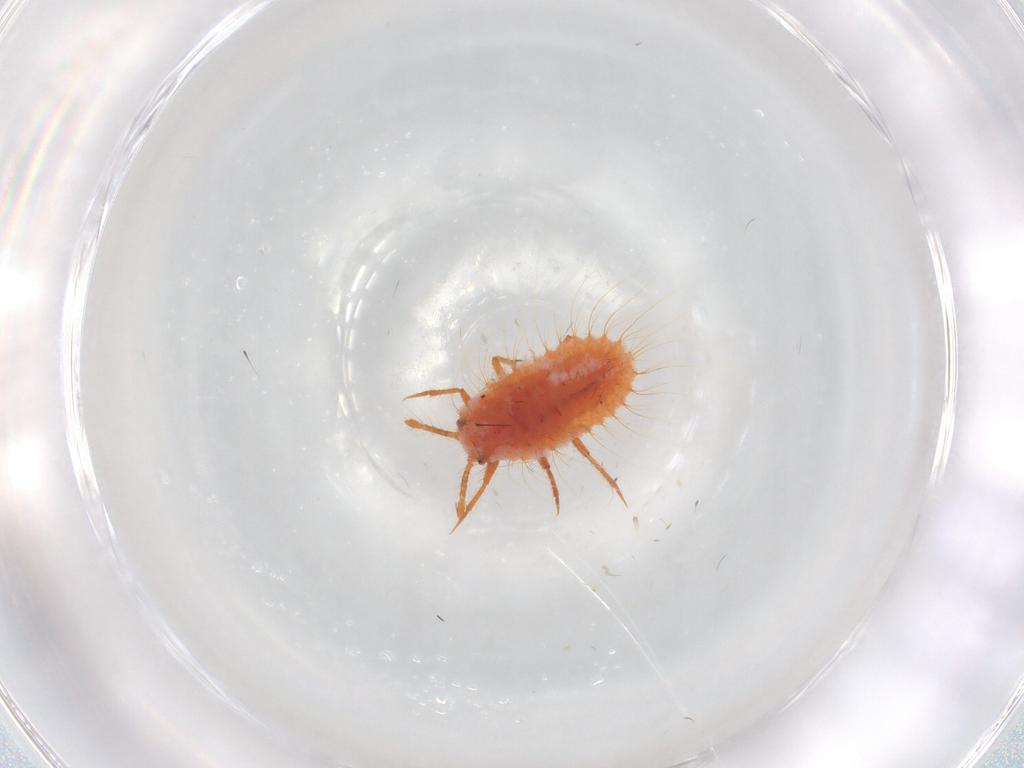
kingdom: Animalia
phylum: Arthropoda
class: Insecta
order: Hemiptera
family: Coccoidea_incertae_sedis
